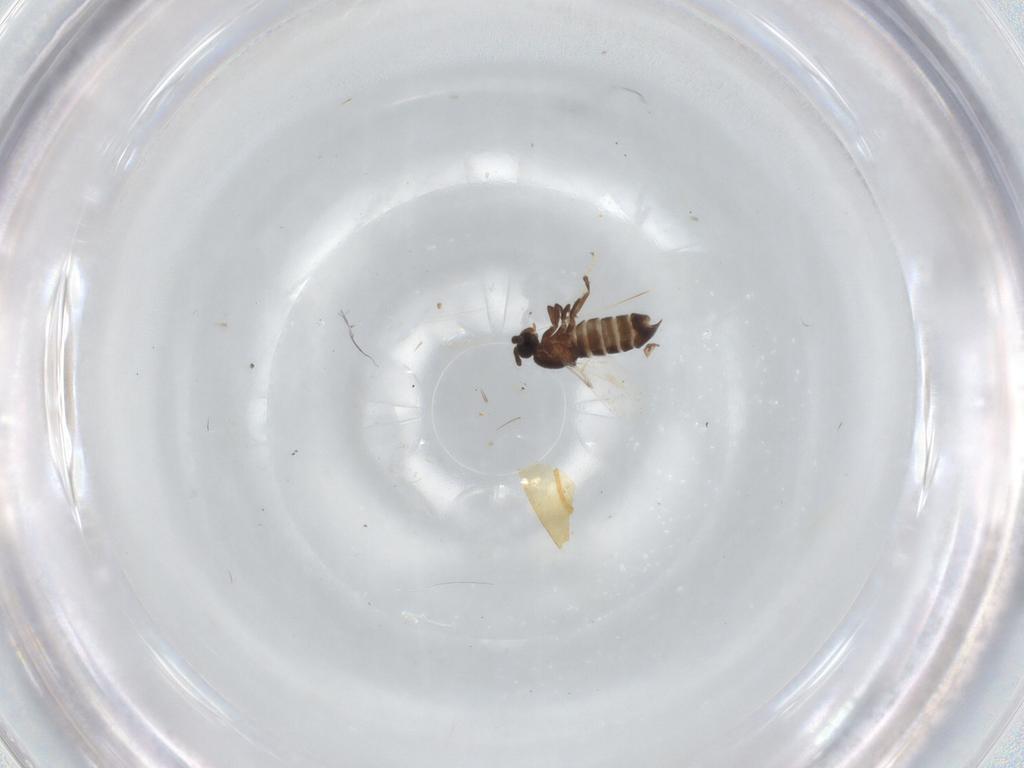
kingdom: Animalia
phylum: Arthropoda
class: Insecta
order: Diptera
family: Scatopsidae
